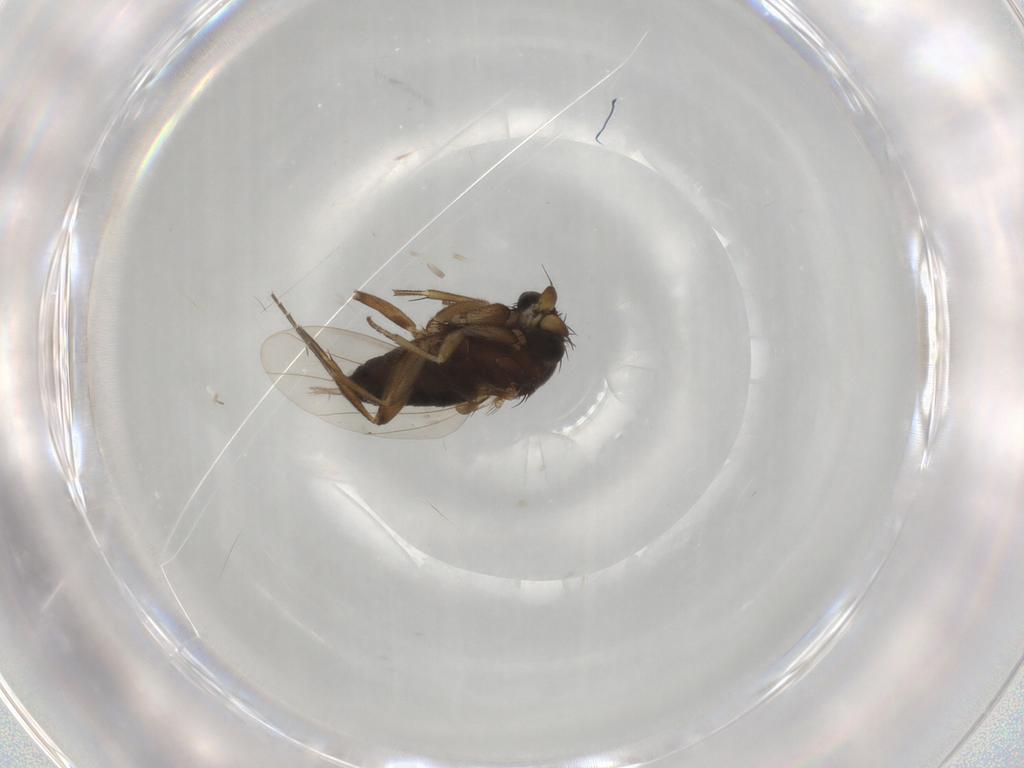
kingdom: Animalia
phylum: Arthropoda
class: Insecta
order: Diptera
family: Phoridae
